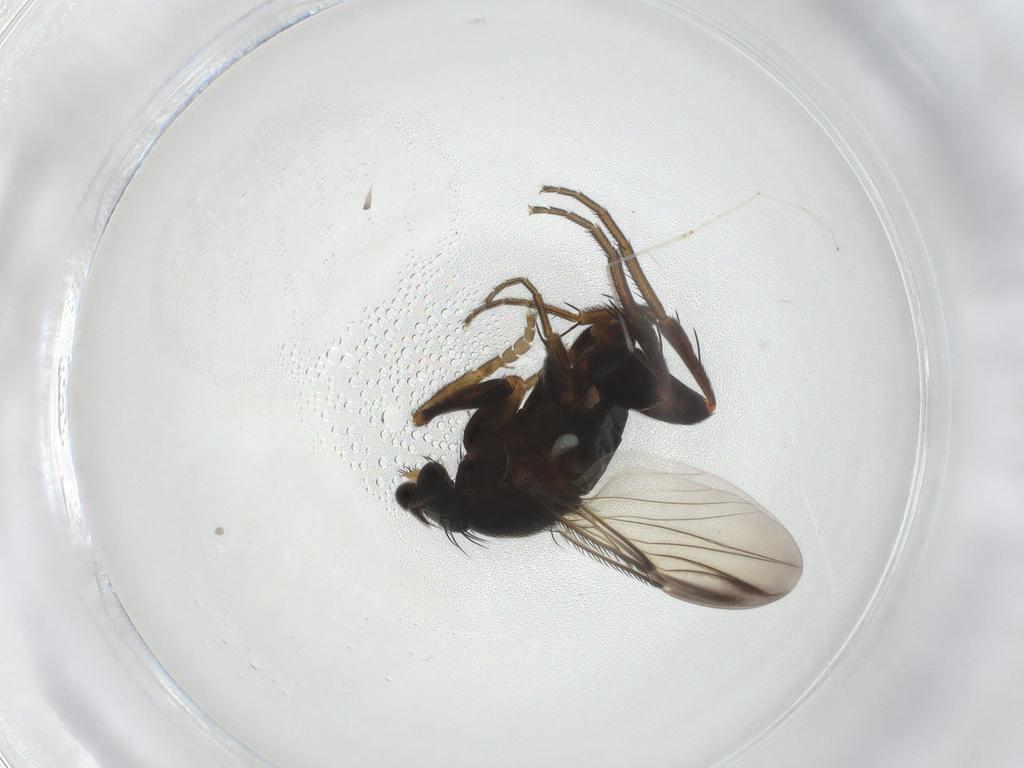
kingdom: Animalia
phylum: Arthropoda
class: Insecta
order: Diptera
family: Phoridae
